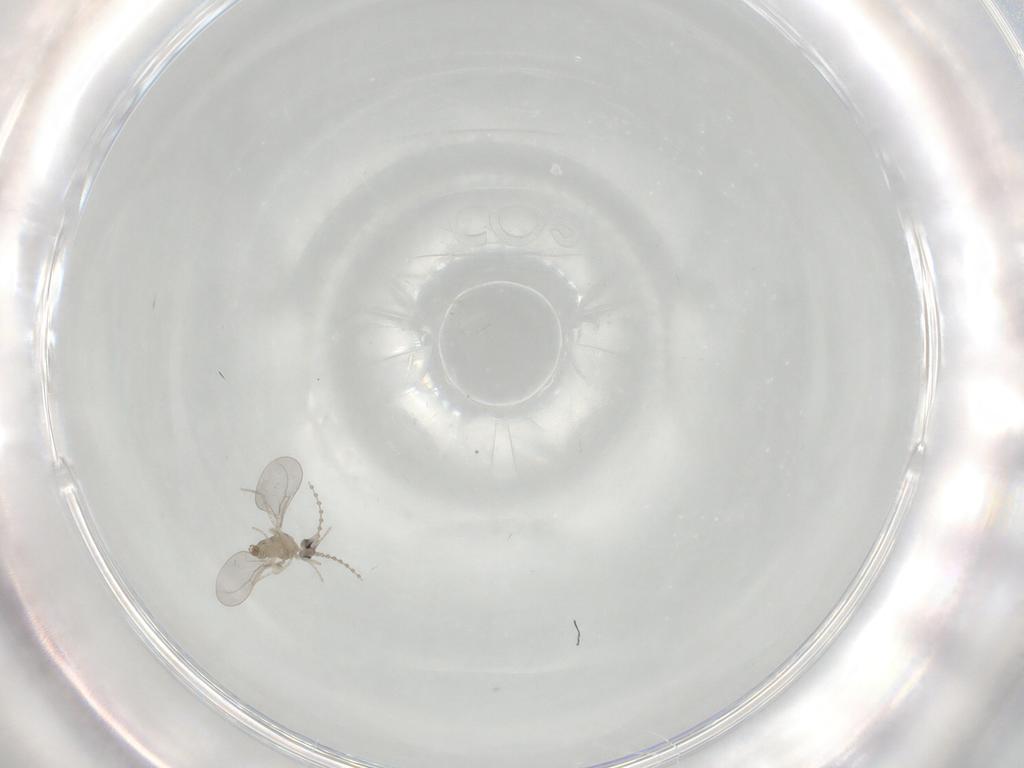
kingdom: Animalia
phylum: Arthropoda
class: Insecta
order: Diptera
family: Cecidomyiidae
